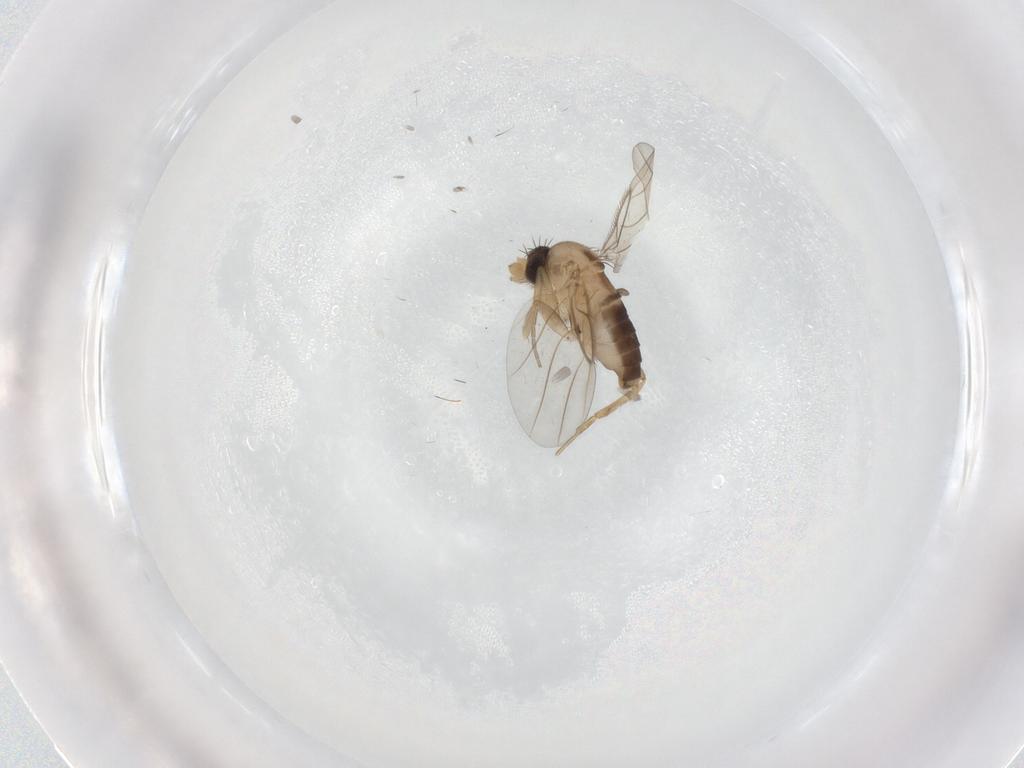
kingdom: Animalia
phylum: Arthropoda
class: Insecta
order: Diptera
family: Phoridae
